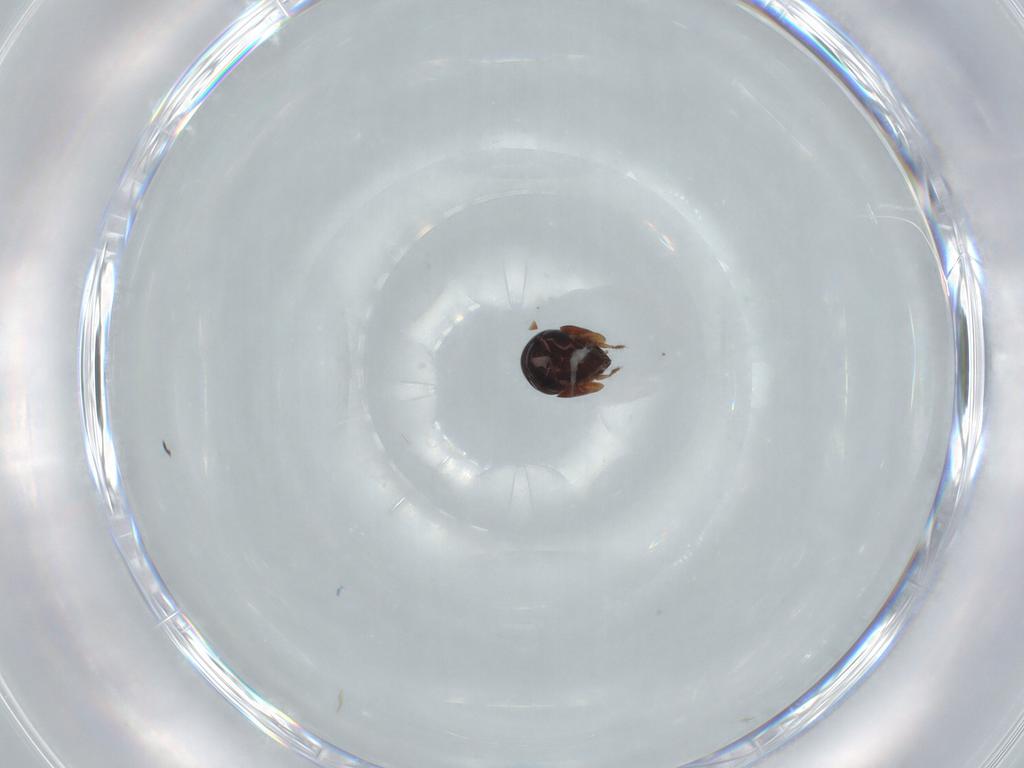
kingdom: Animalia
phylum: Arthropoda
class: Arachnida
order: Sarcoptiformes
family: Galumnidae
